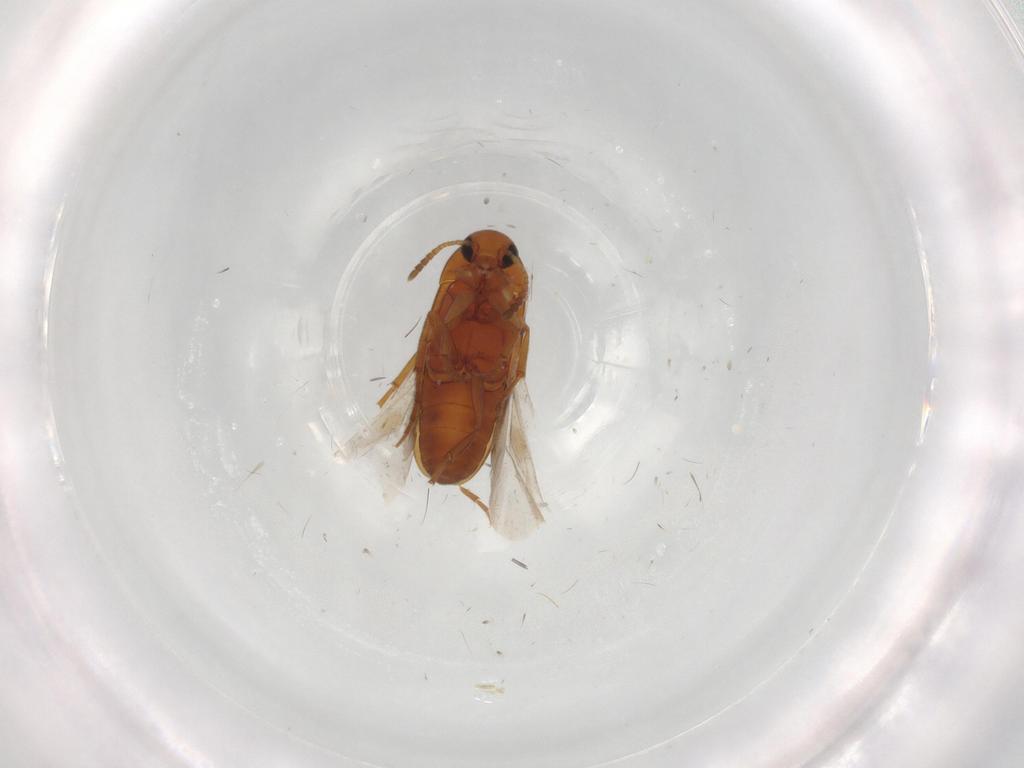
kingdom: Animalia
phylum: Arthropoda
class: Insecta
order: Coleoptera
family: Scraptiidae
